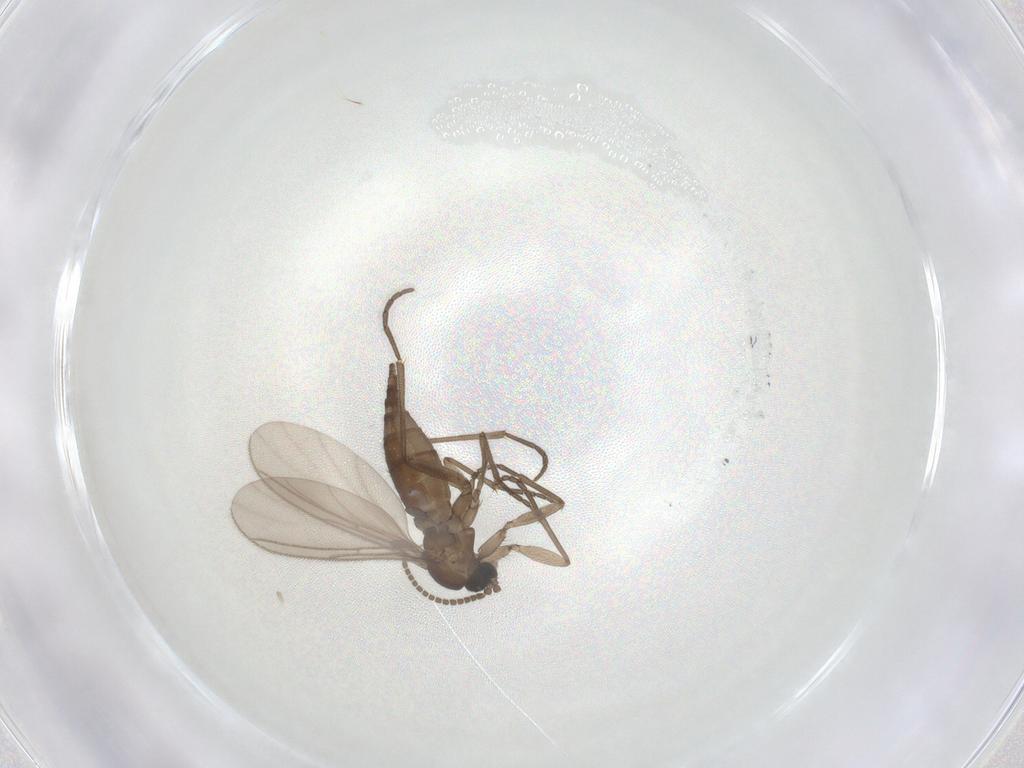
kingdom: Animalia
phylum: Arthropoda
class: Insecta
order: Diptera
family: Sciaridae
